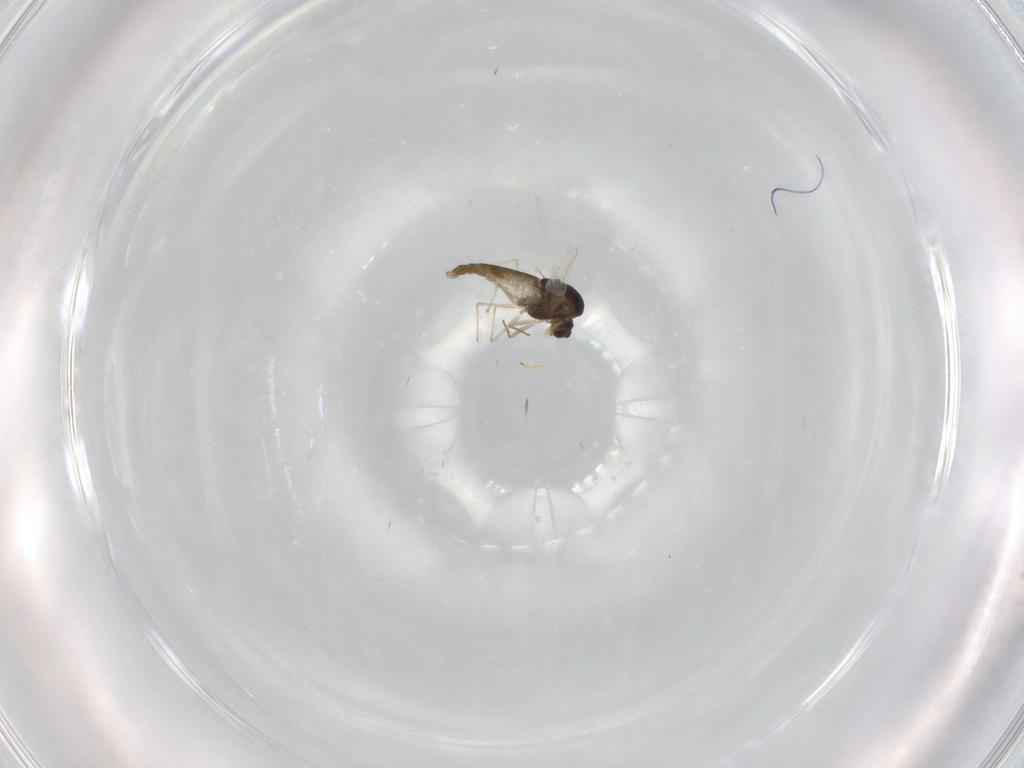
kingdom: Animalia
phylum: Arthropoda
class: Insecta
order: Diptera
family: Chironomidae
